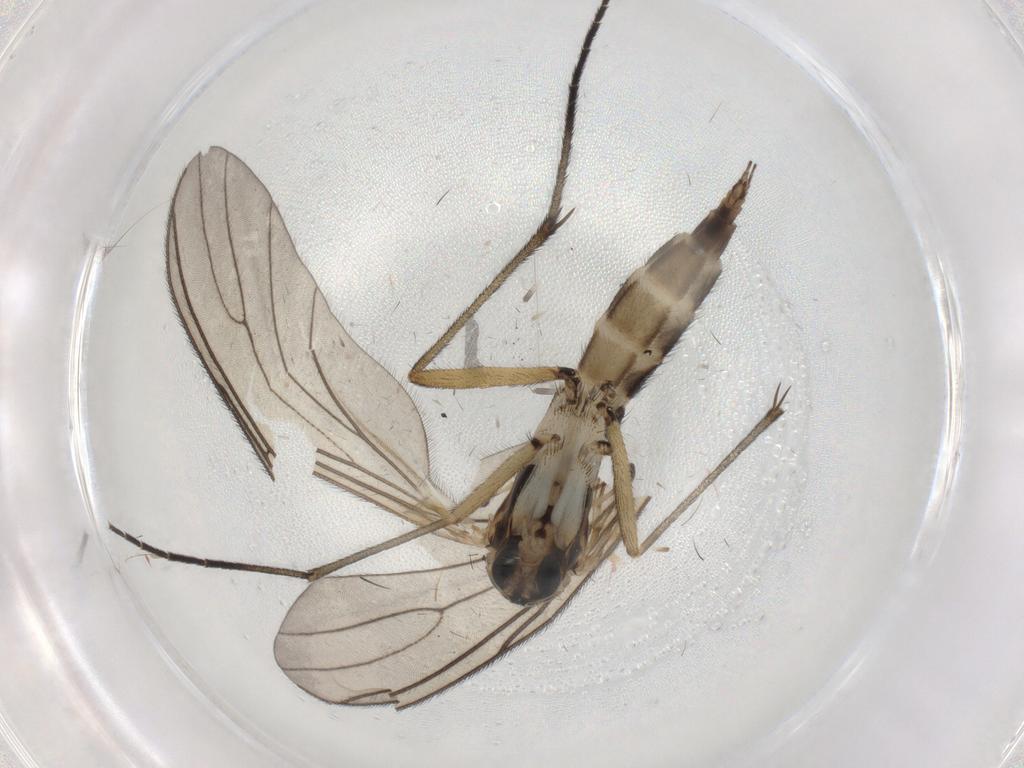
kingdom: Animalia
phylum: Arthropoda
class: Insecta
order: Diptera
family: Sciaridae
